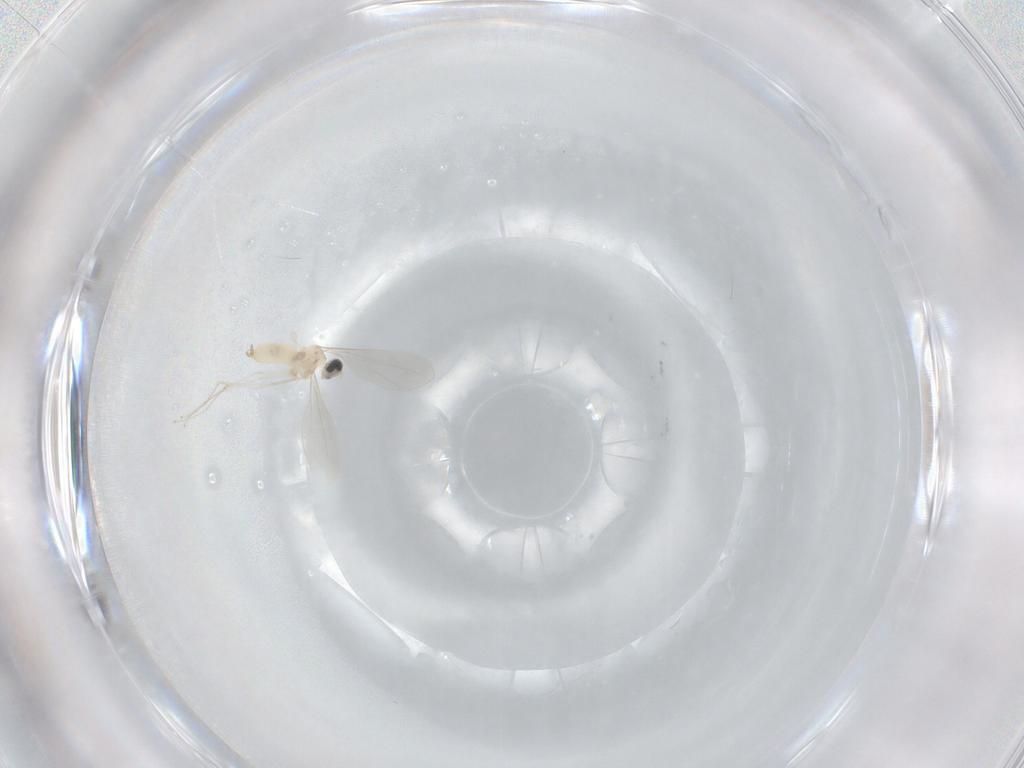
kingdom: Animalia
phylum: Arthropoda
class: Insecta
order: Diptera
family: Cecidomyiidae
